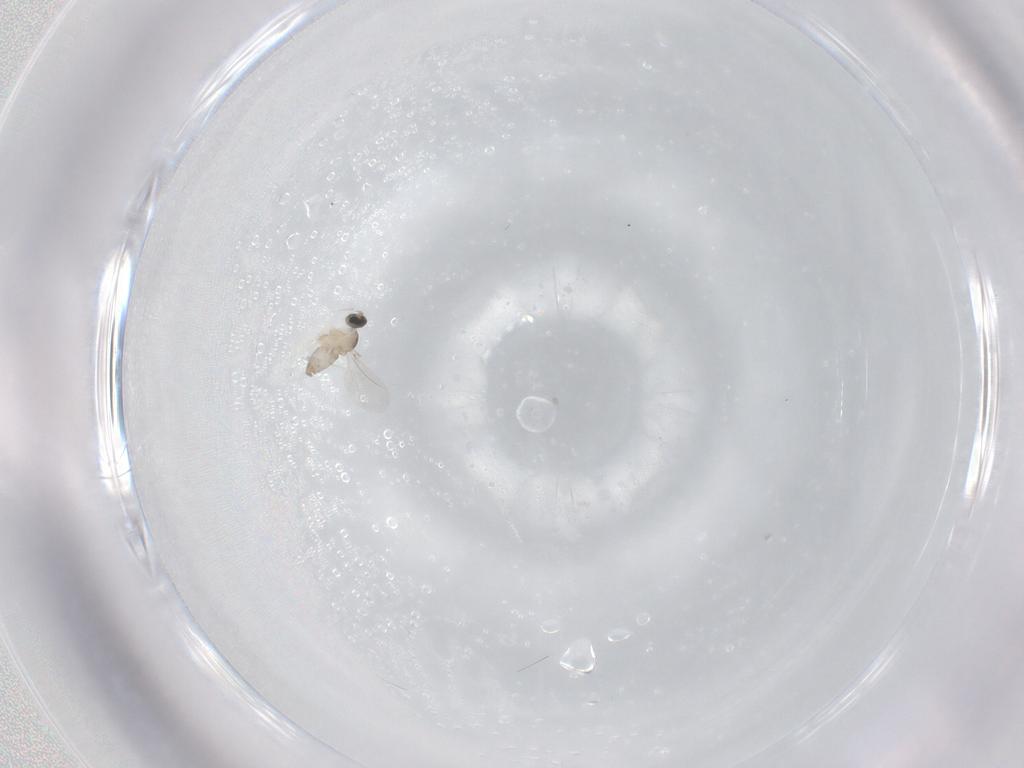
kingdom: Animalia
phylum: Arthropoda
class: Insecta
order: Diptera
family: Cecidomyiidae
